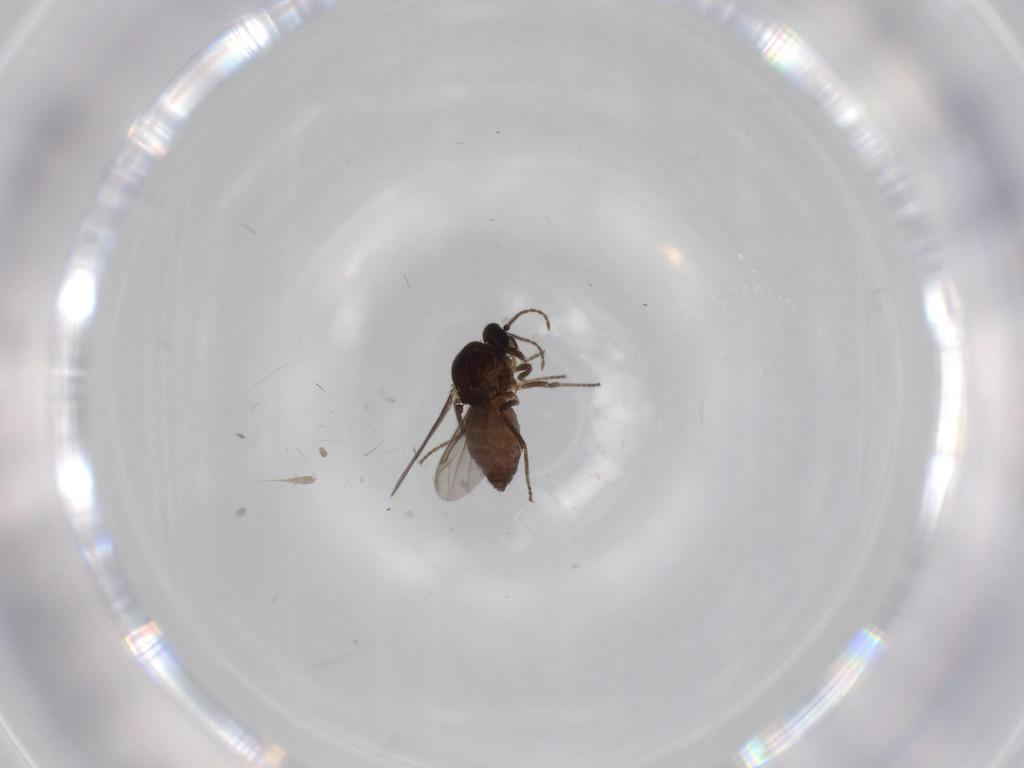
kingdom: Animalia
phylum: Arthropoda
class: Insecta
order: Diptera
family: Ceratopogonidae
